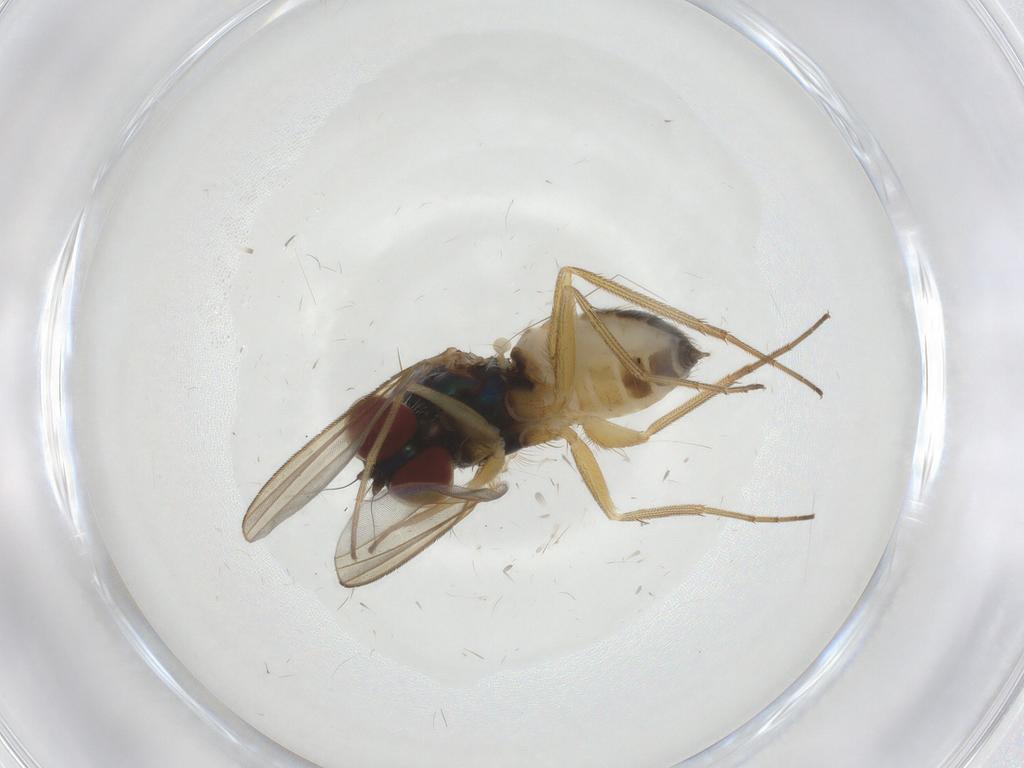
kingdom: Animalia
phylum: Arthropoda
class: Insecta
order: Diptera
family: Dolichopodidae
